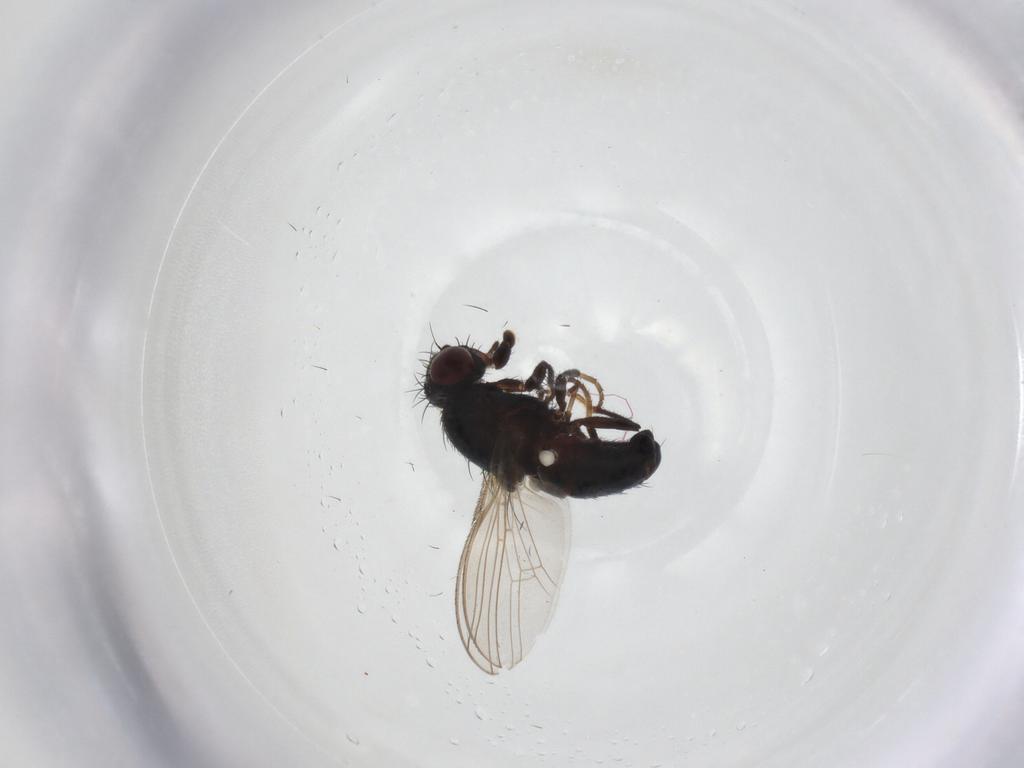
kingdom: Animalia
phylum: Arthropoda
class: Insecta
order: Diptera
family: Carnidae
